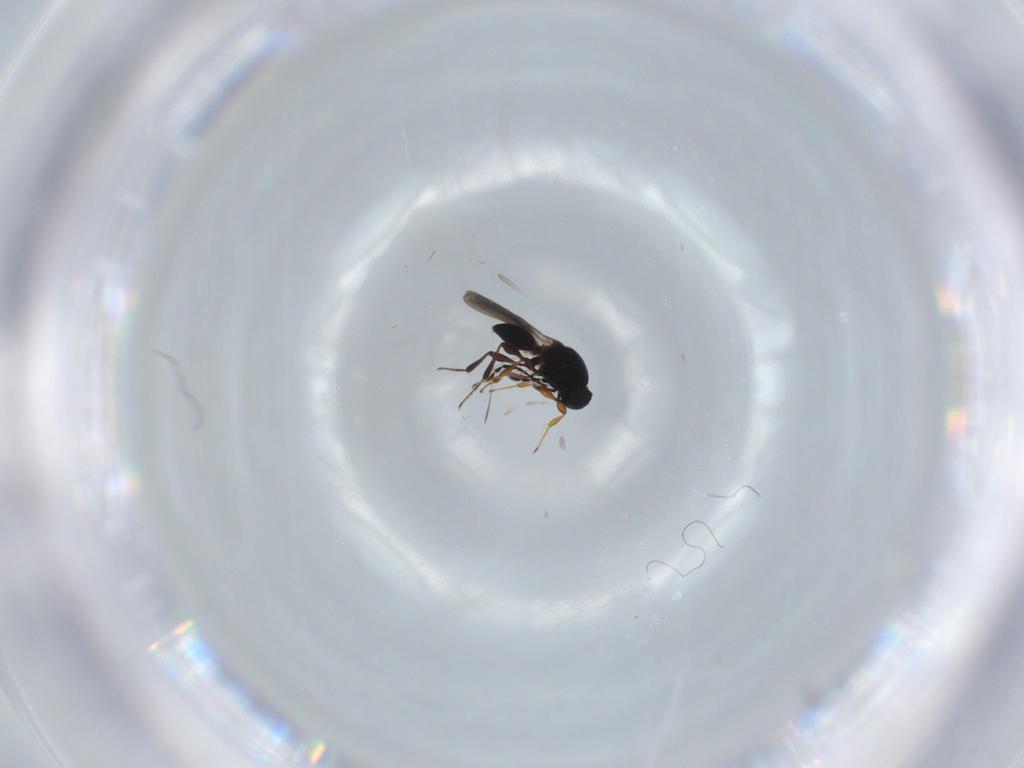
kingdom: Animalia
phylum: Arthropoda
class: Insecta
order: Hymenoptera
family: Platygastridae
